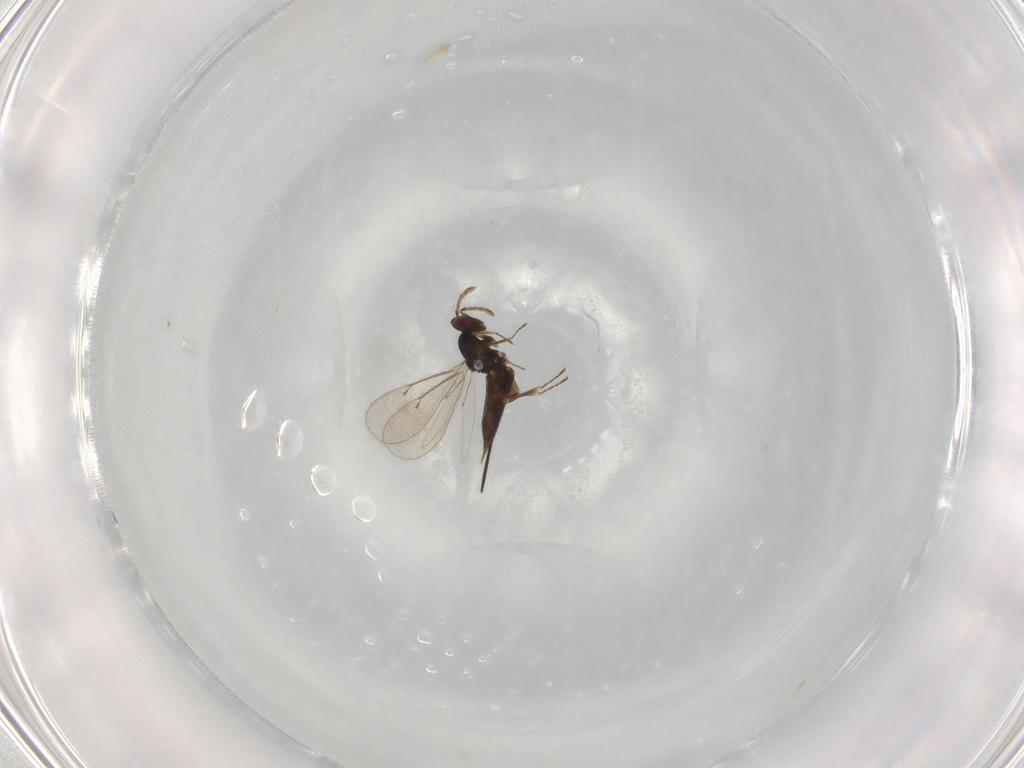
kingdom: Animalia
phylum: Arthropoda
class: Insecta
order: Hymenoptera
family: Eulophidae
